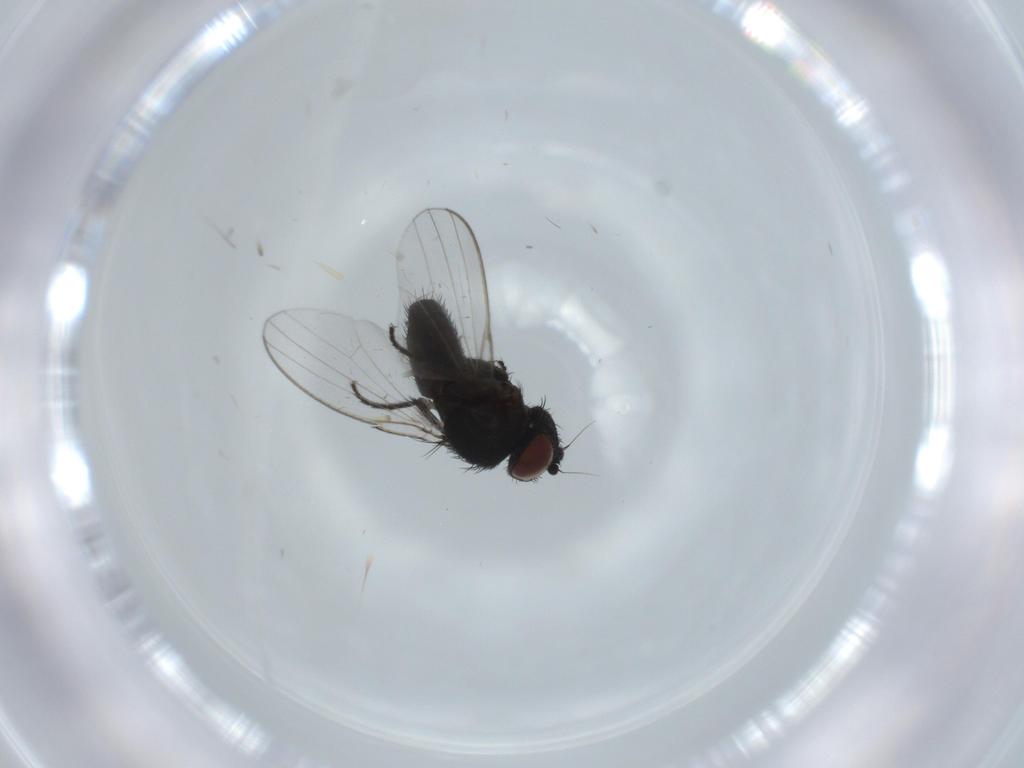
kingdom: Animalia
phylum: Arthropoda
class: Insecta
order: Diptera
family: Milichiidae
